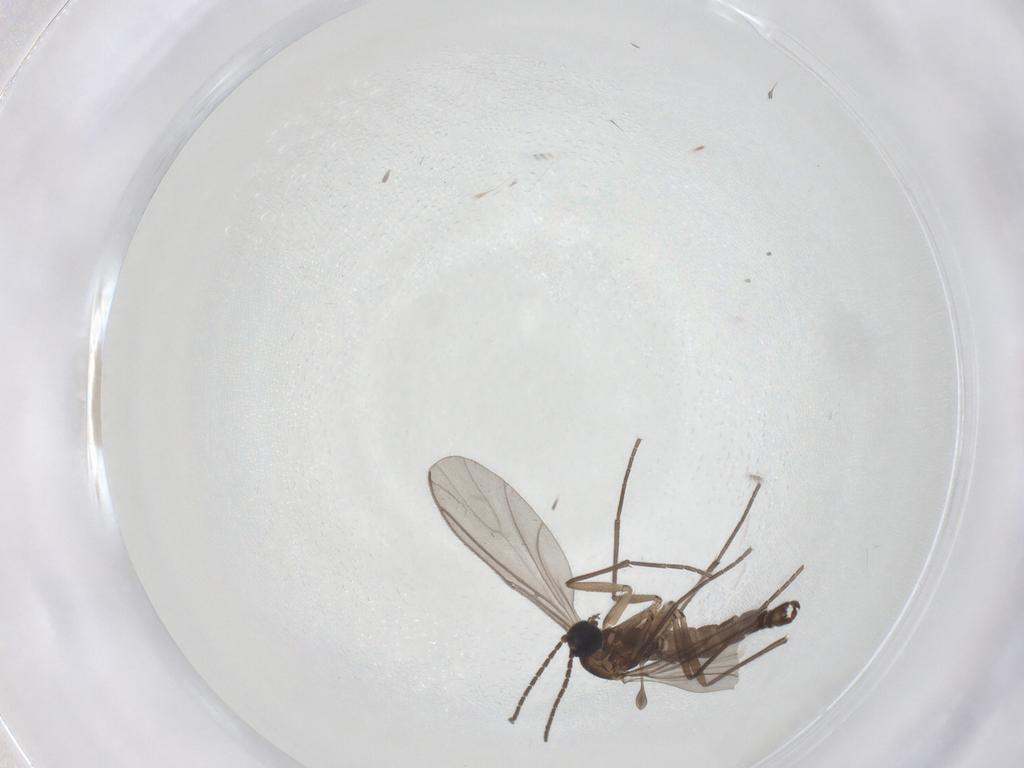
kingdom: Animalia
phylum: Arthropoda
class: Insecta
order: Diptera
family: Sciaridae
